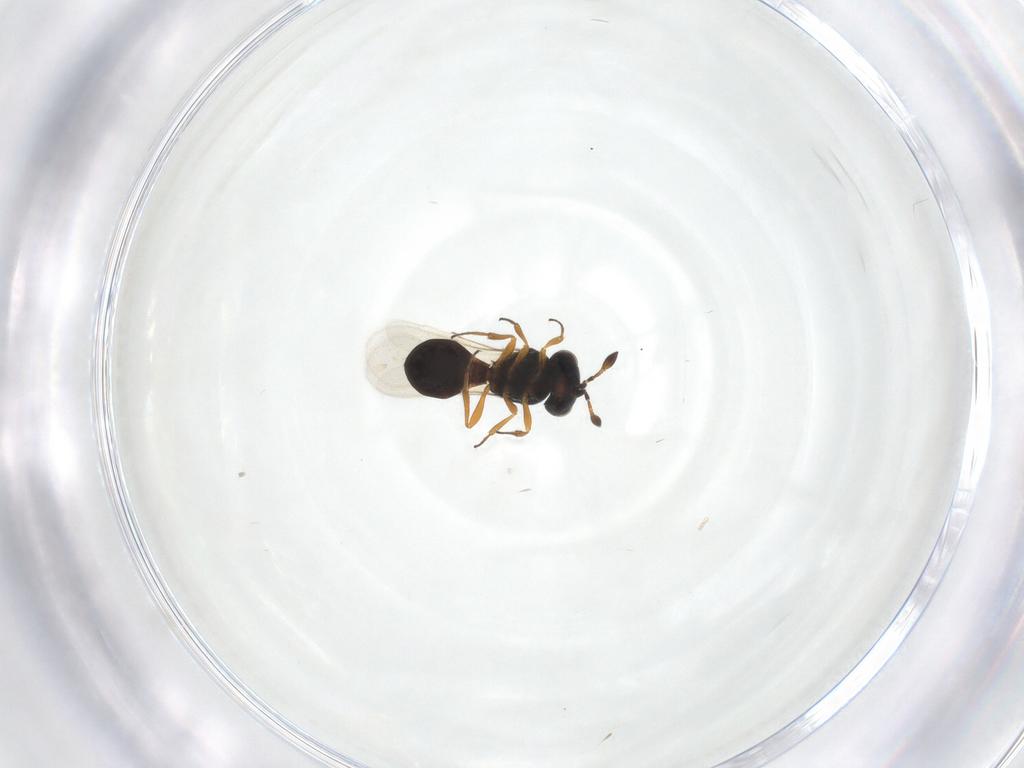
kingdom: Animalia
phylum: Arthropoda
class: Insecta
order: Hymenoptera
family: Scelionidae
